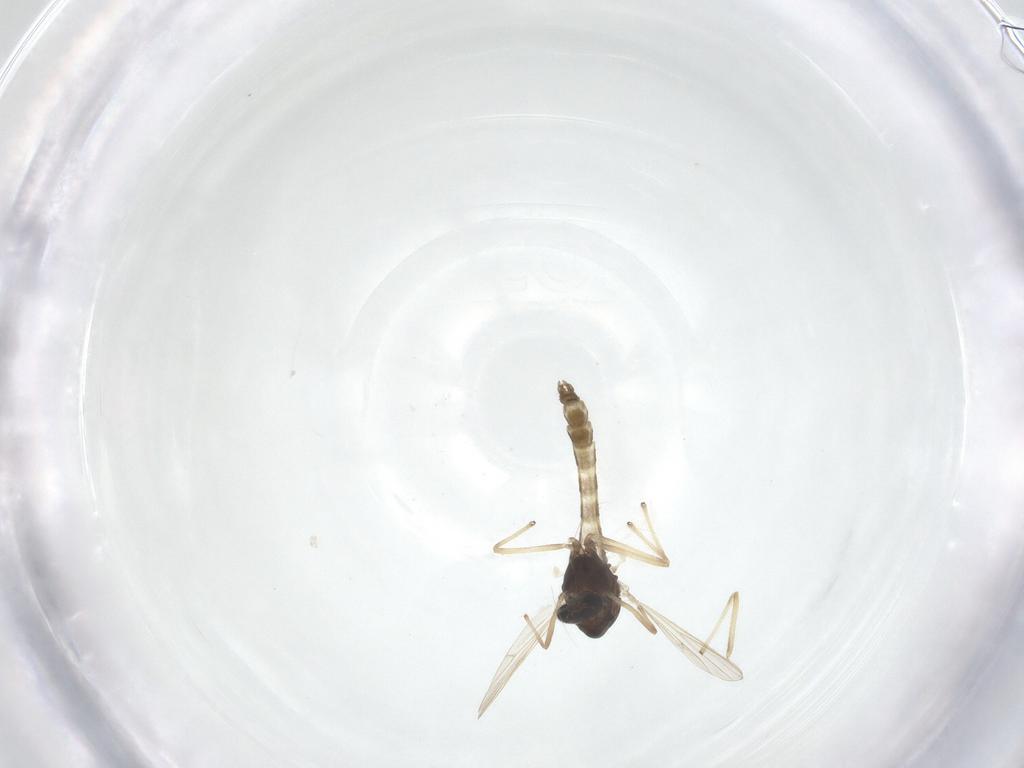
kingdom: Animalia
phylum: Arthropoda
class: Insecta
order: Diptera
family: Chironomidae
